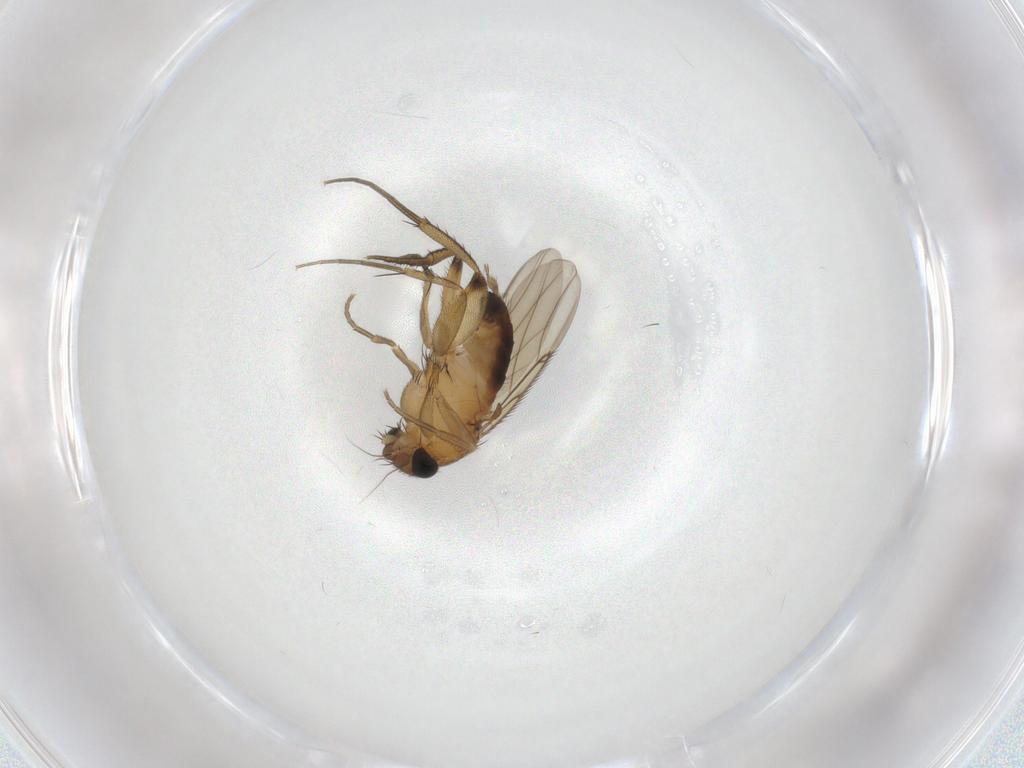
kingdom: Animalia
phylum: Arthropoda
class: Insecta
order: Diptera
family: Phoridae
